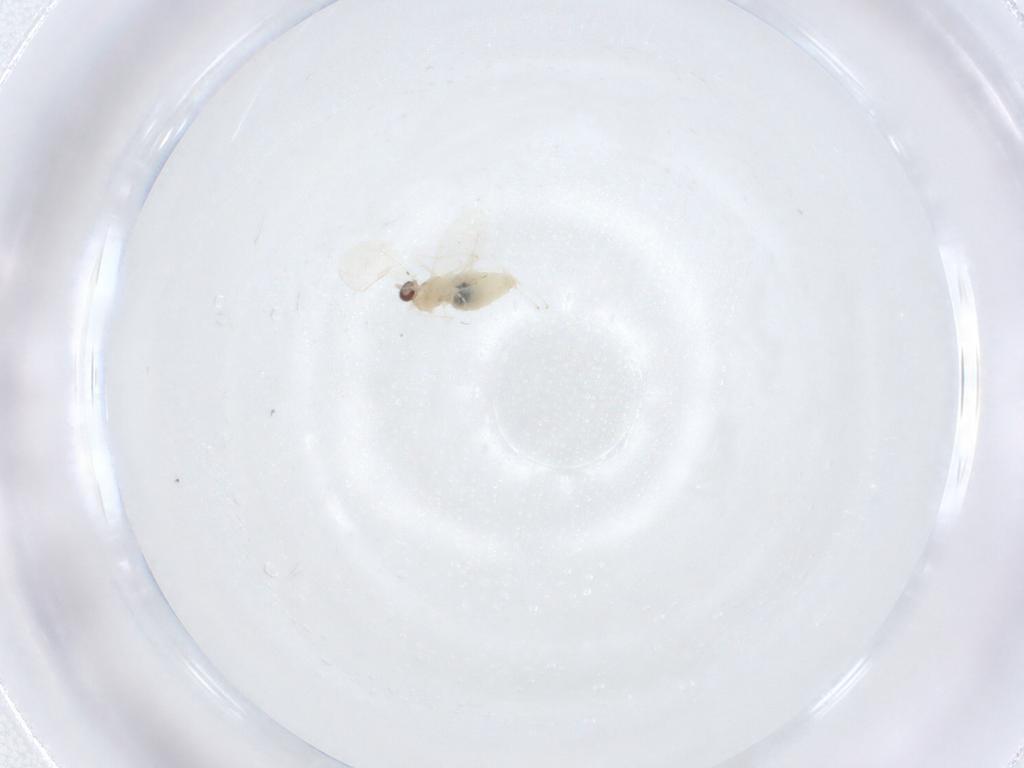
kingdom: Animalia
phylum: Arthropoda
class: Insecta
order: Diptera
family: Cecidomyiidae
